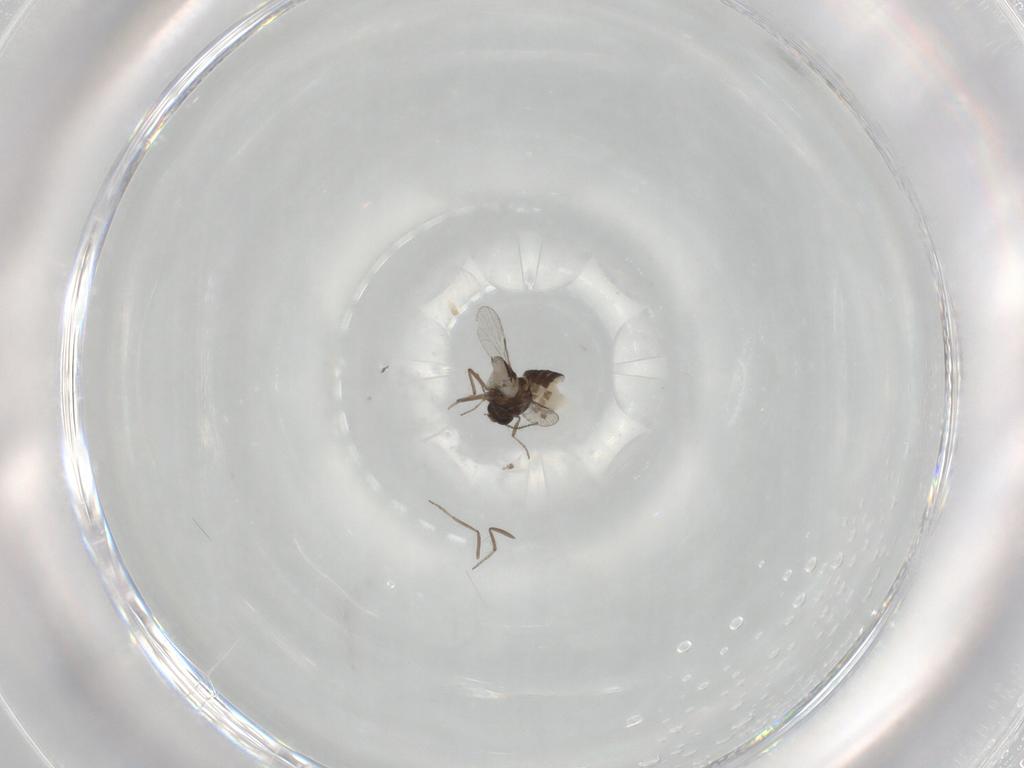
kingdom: Animalia
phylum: Arthropoda
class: Insecta
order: Diptera
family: Ceratopogonidae
